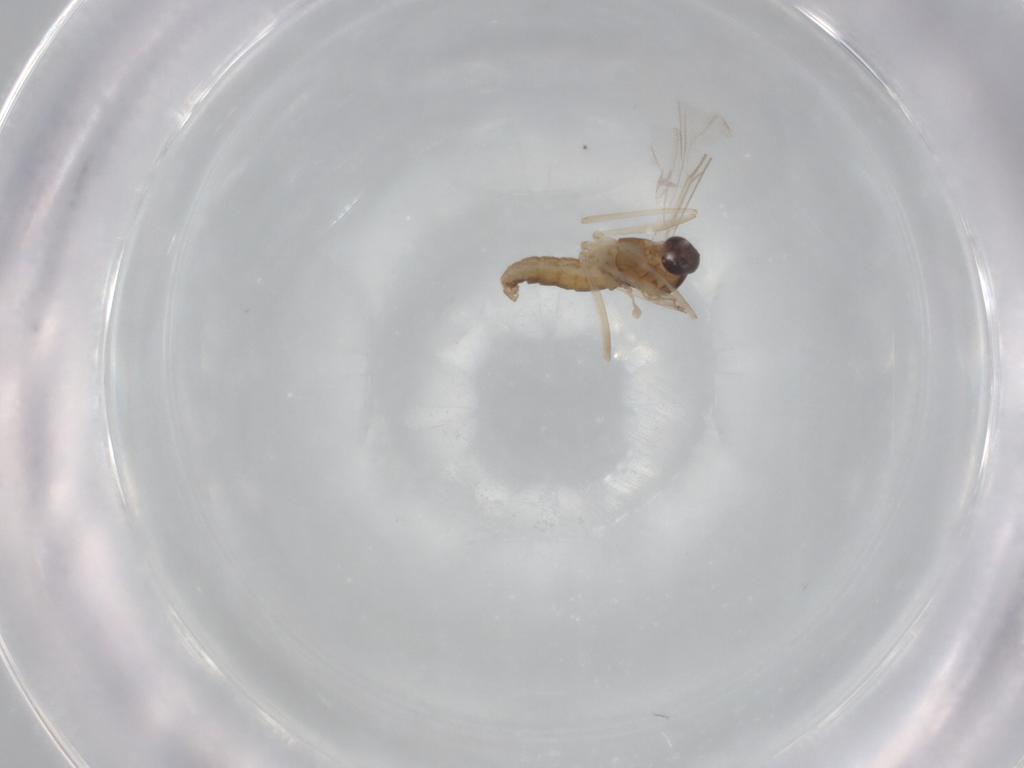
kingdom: Animalia
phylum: Arthropoda
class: Insecta
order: Diptera
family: Cecidomyiidae
